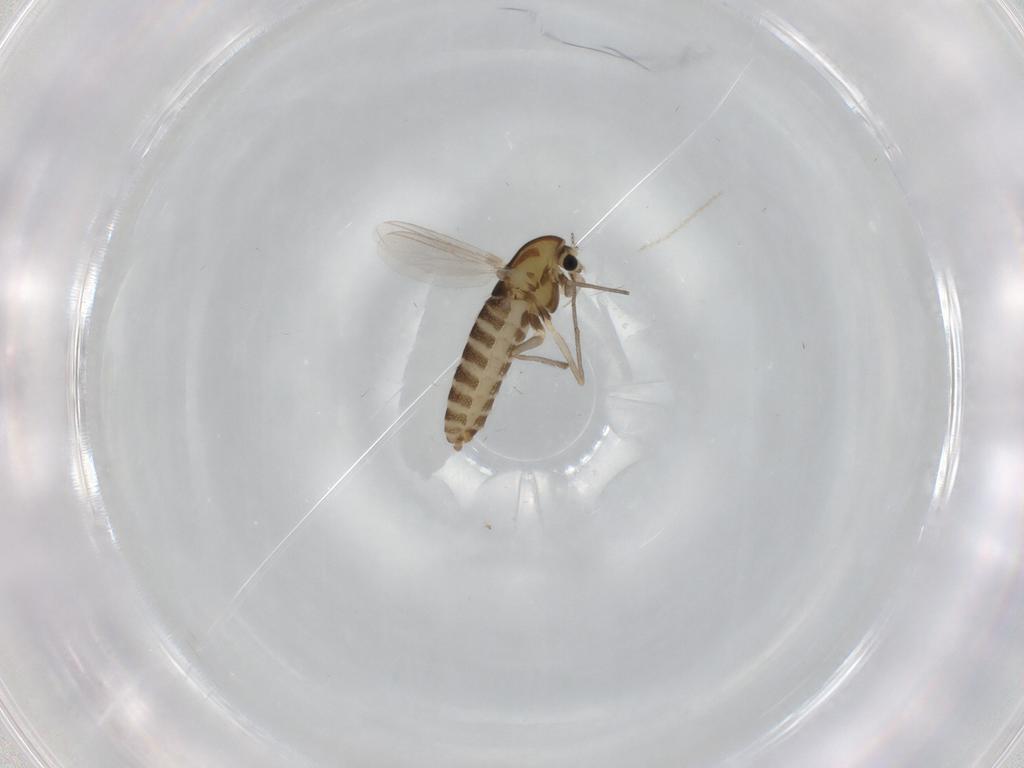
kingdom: Animalia
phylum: Arthropoda
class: Insecta
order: Diptera
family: Chironomidae
